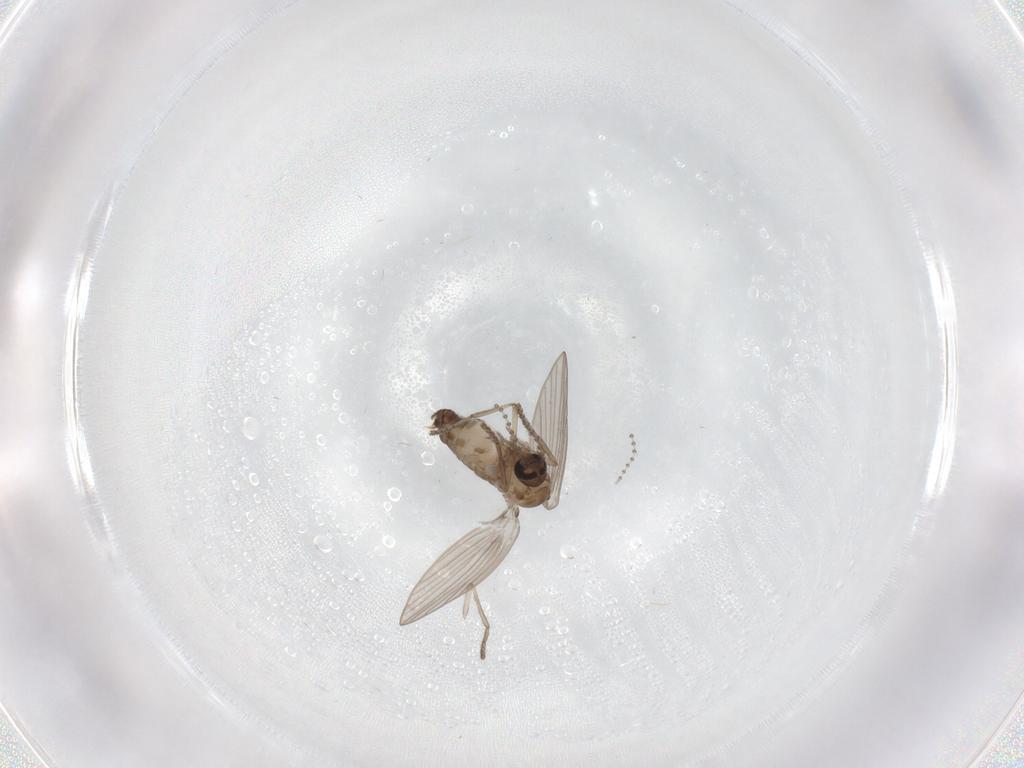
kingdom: Animalia
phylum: Arthropoda
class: Insecta
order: Diptera
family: Psychodidae
